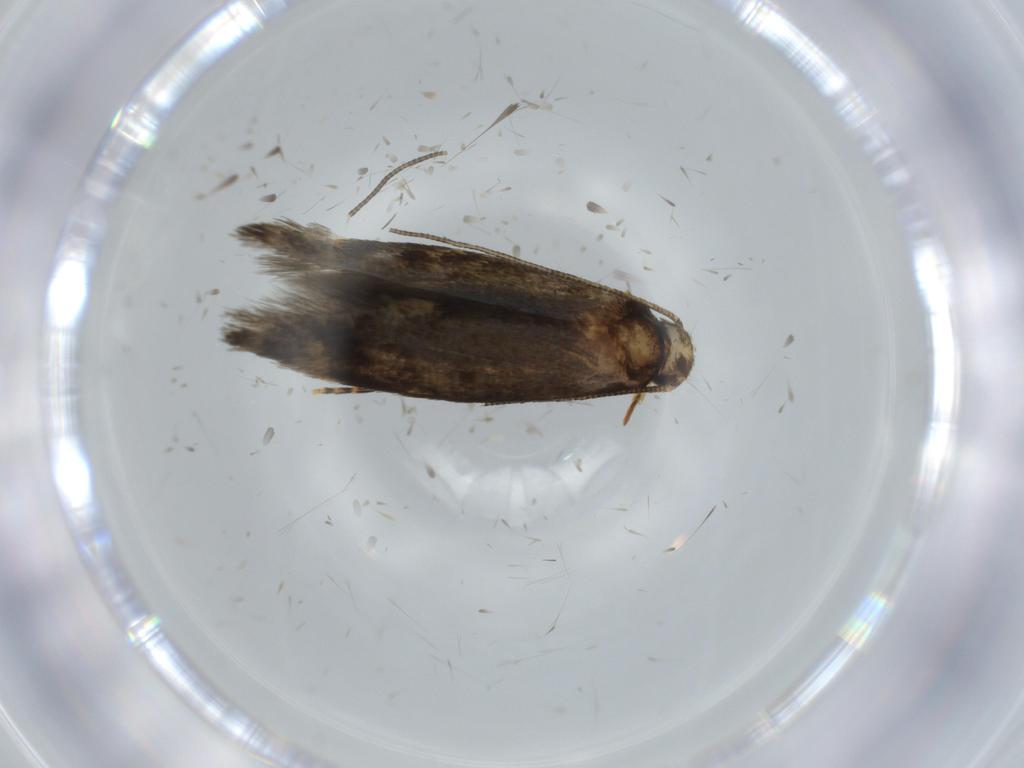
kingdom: Animalia
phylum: Arthropoda
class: Insecta
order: Lepidoptera
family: Tineidae
